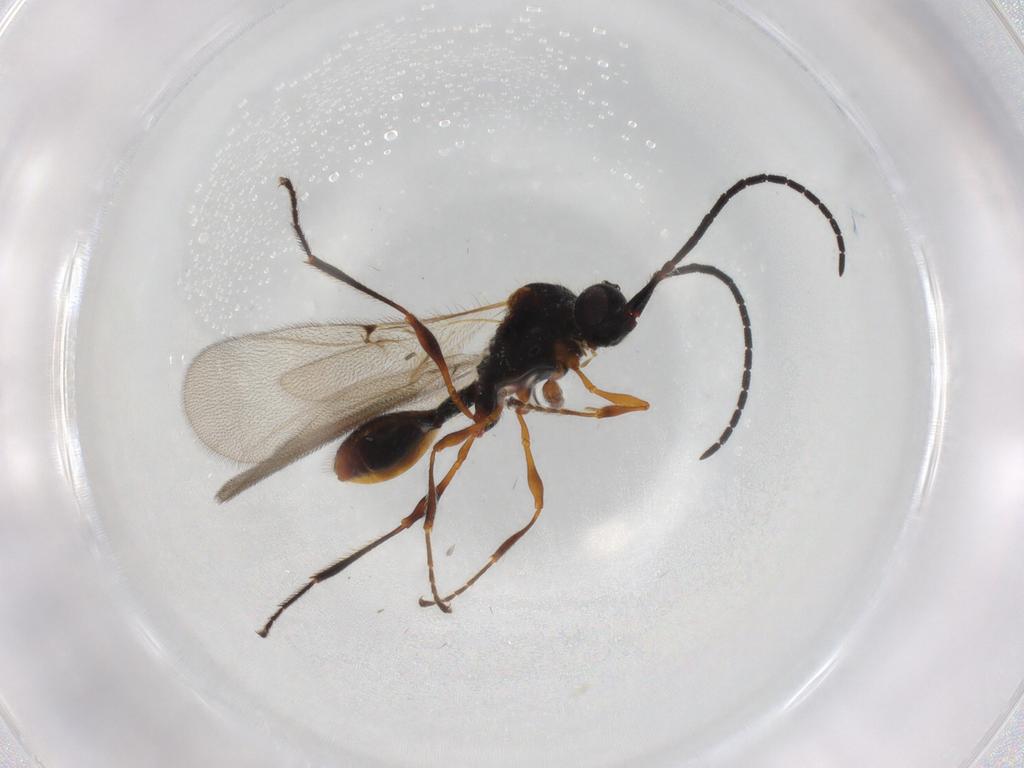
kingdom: Animalia
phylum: Arthropoda
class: Insecta
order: Hymenoptera
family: Diapriidae
